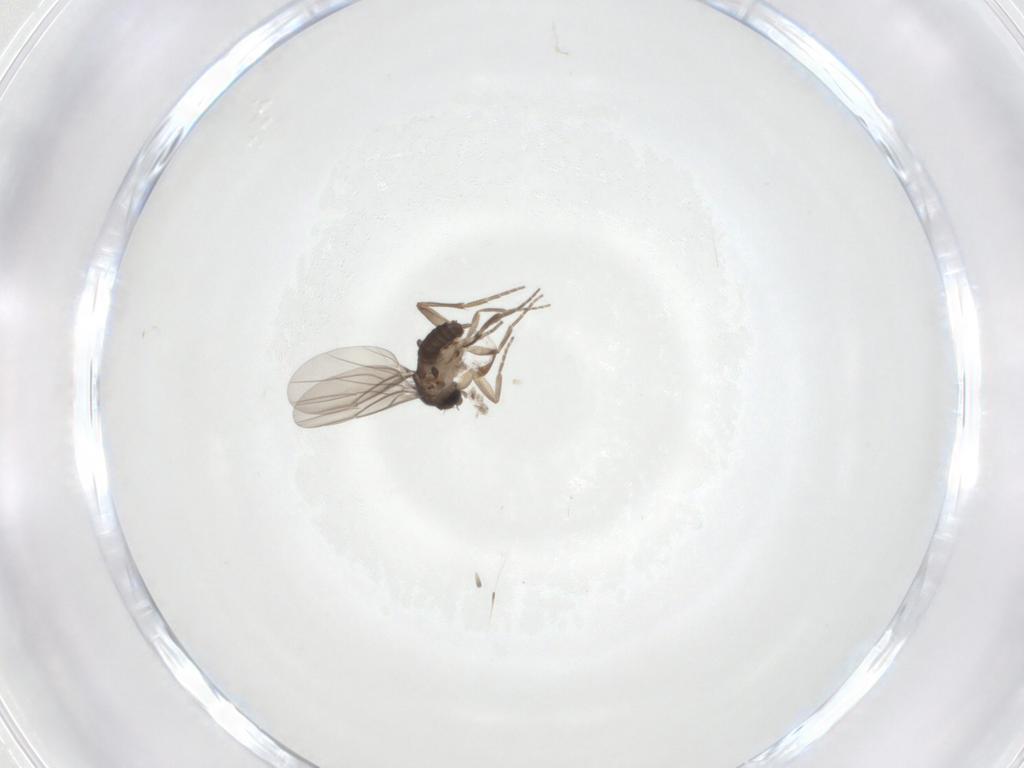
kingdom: Animalia
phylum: Arthropoda
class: Insecta
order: Diptera
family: Phoridae
